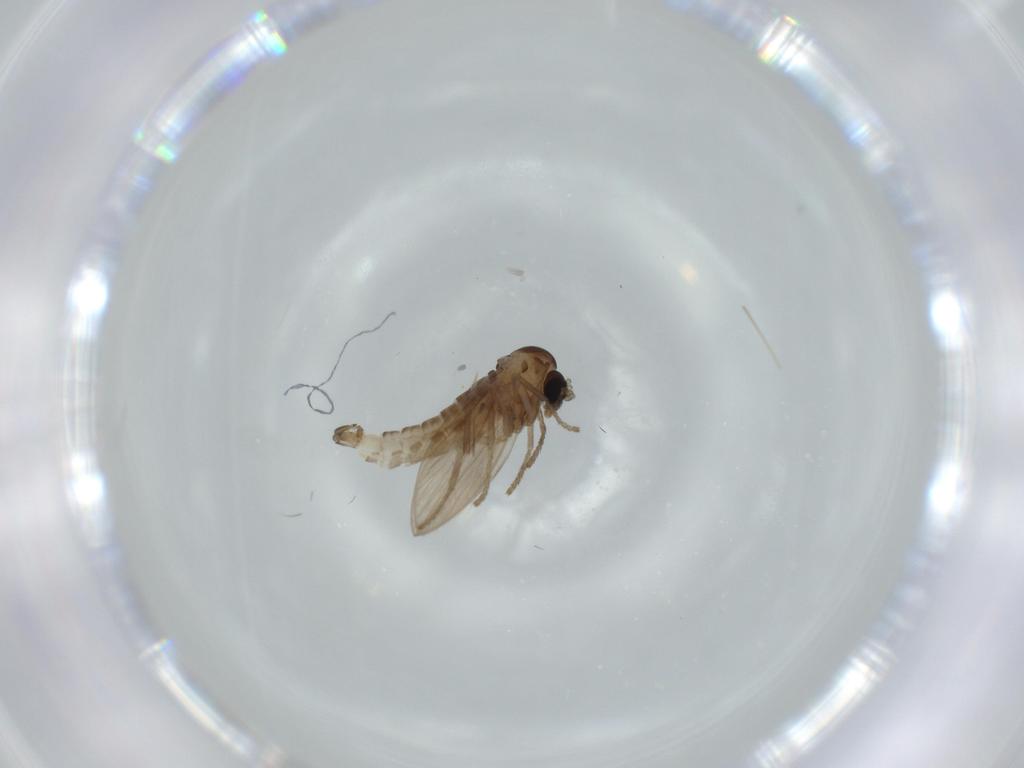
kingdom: Animalia
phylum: Arthropoda
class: Insecta
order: Diptera
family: Psychodidae
